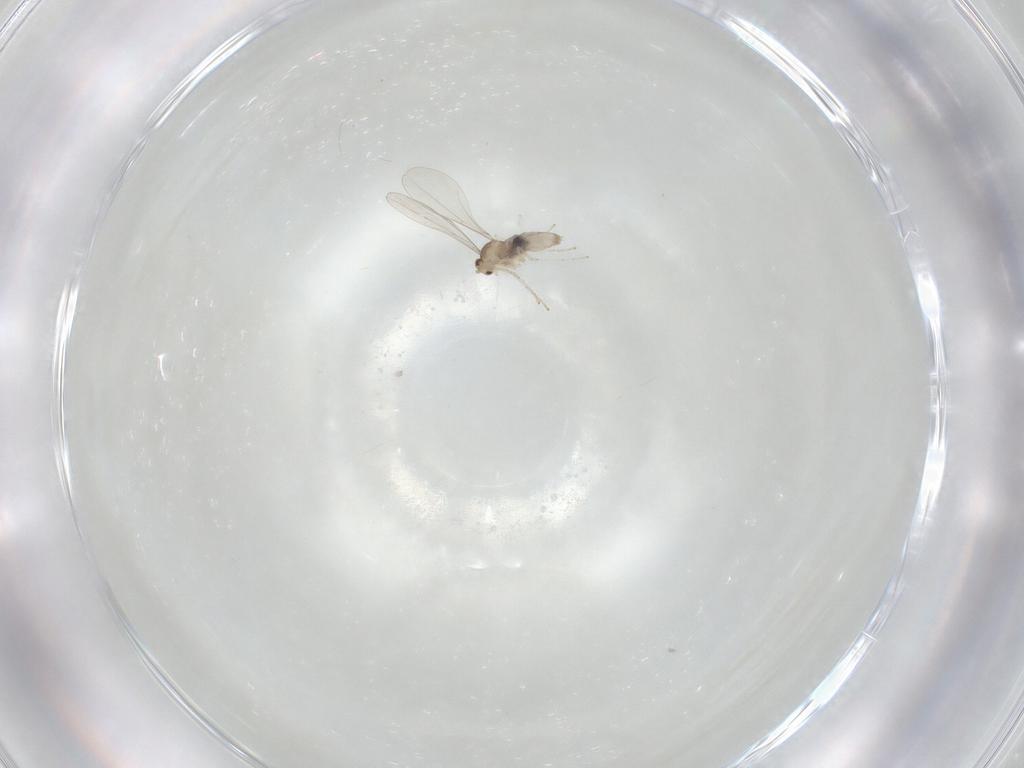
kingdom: Animalia
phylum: Arthropoda
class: Insecta
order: Diptera
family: Cecidomyiidae
